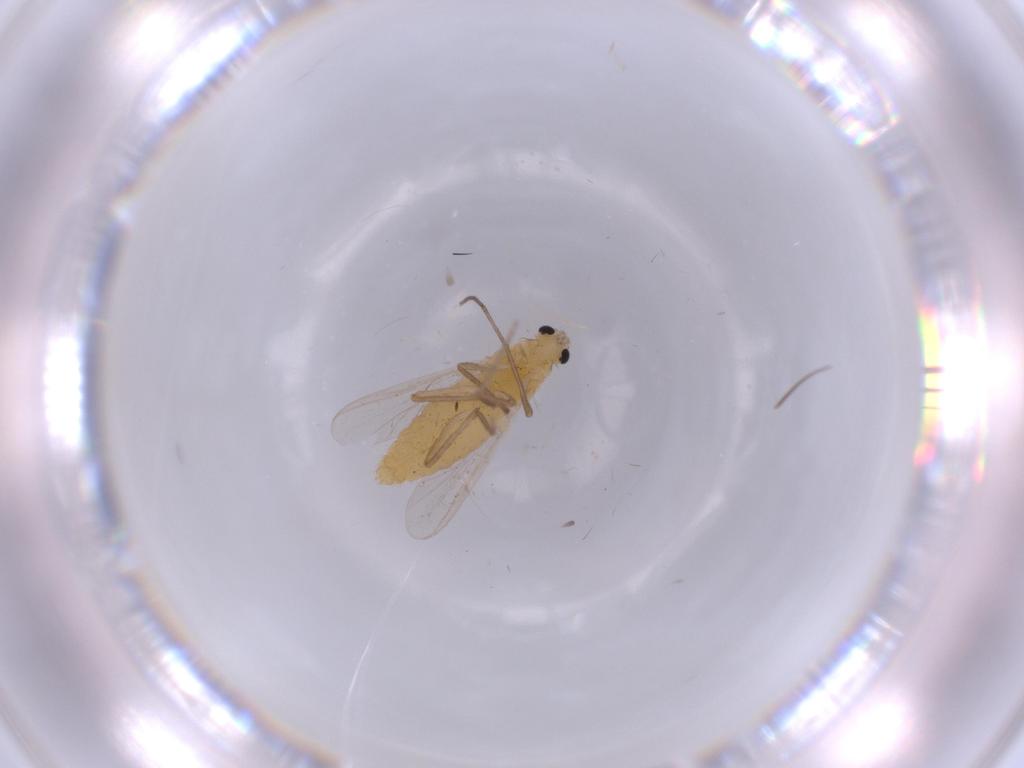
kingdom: Animalia
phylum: Arthropoda
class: Insecta
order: Diptera
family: Chironomidae
